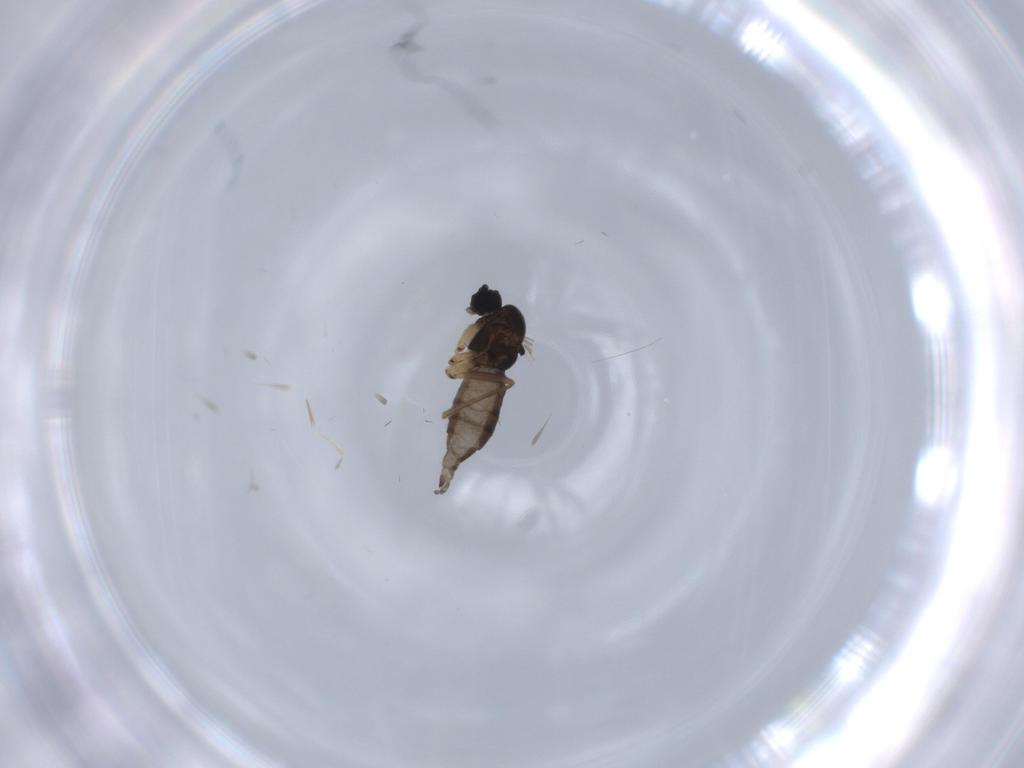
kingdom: Animalia
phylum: Arthropoda
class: Insecta
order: Diptera
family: Sciaridae
